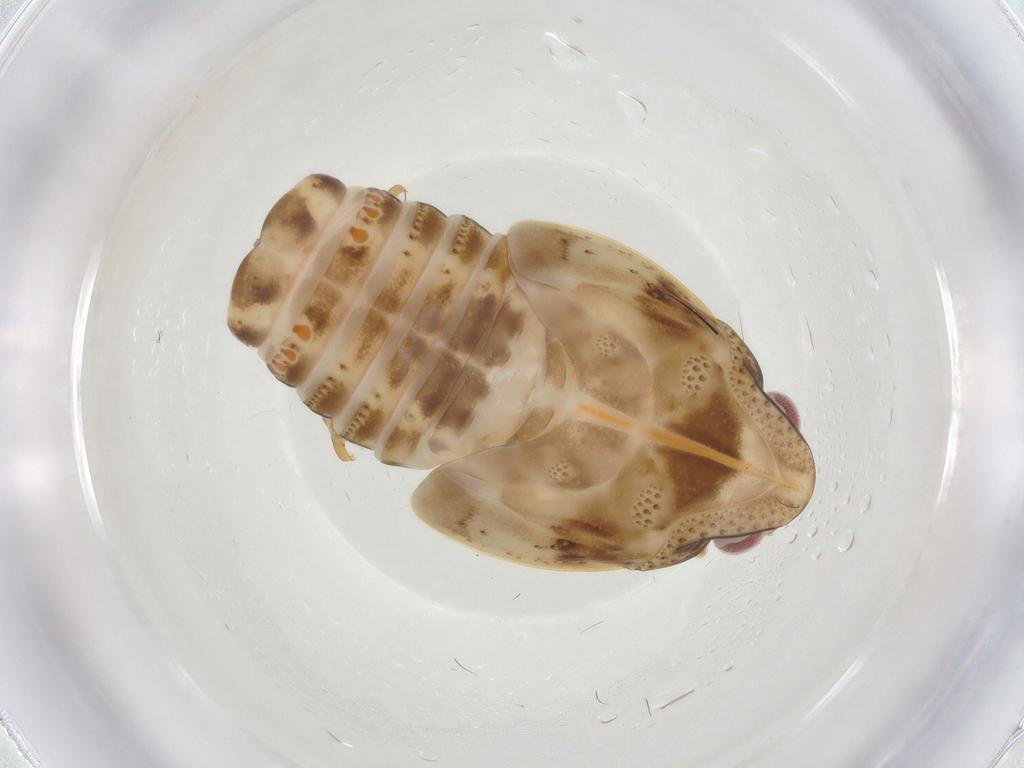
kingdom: Animalia
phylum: Arthropoda
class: Insecta
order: Hemiptera
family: Flatidae
